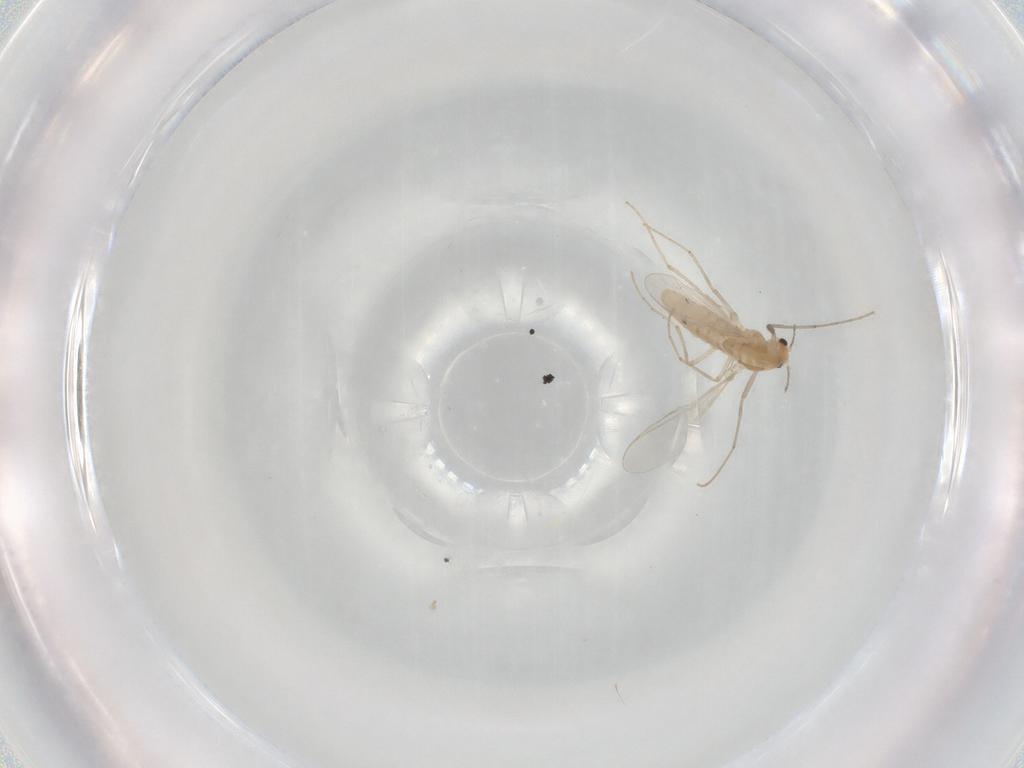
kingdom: Animalia
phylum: Arthropoda
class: Insecta
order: Diptera
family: Chironomidae
